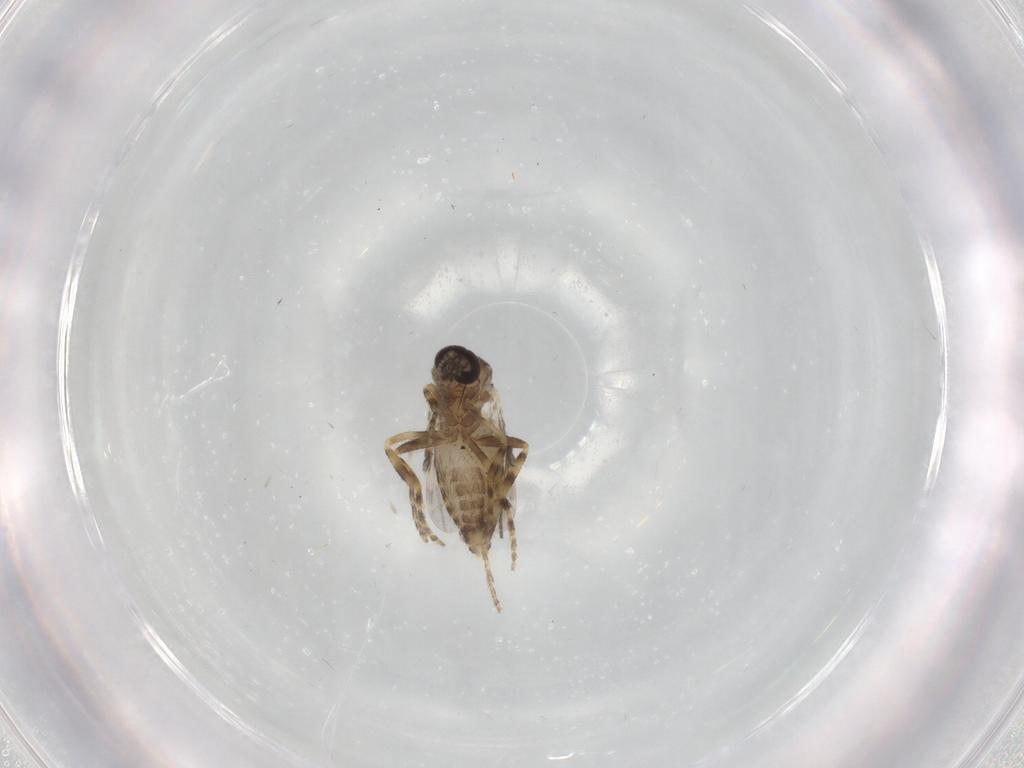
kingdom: Animalia
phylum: Arthropoda
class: Insecta
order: Diptera
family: Ceratopogonidae
